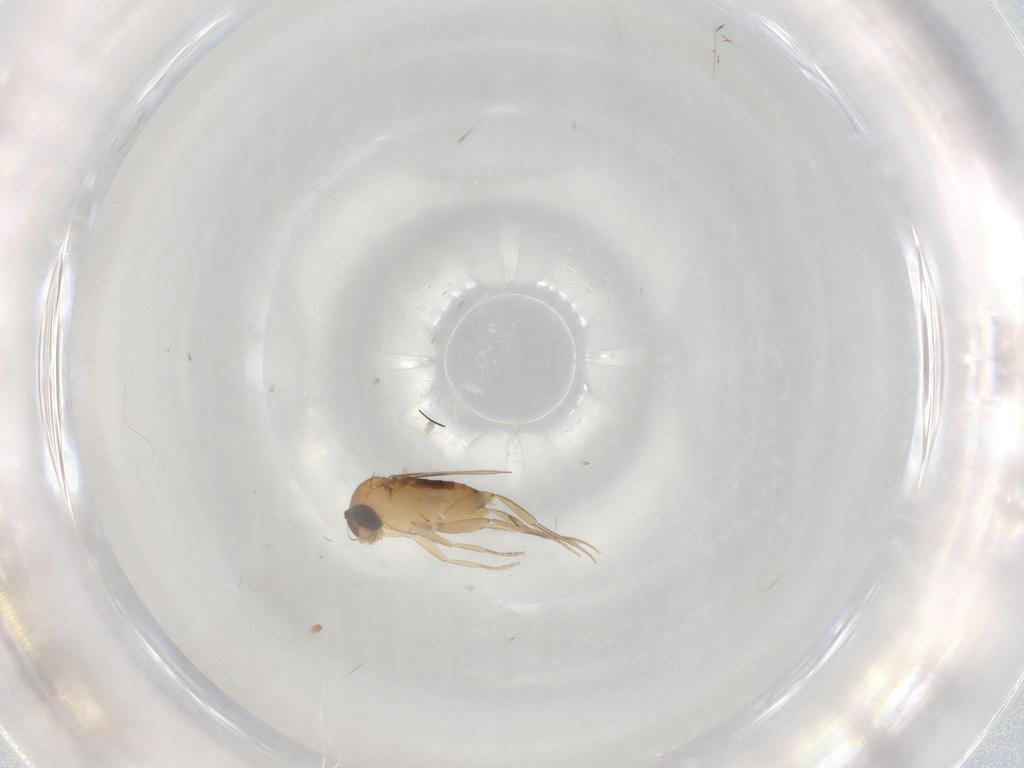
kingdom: Animalia
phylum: Arthropoda
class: Insecta
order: Diptera
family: Phoridae
